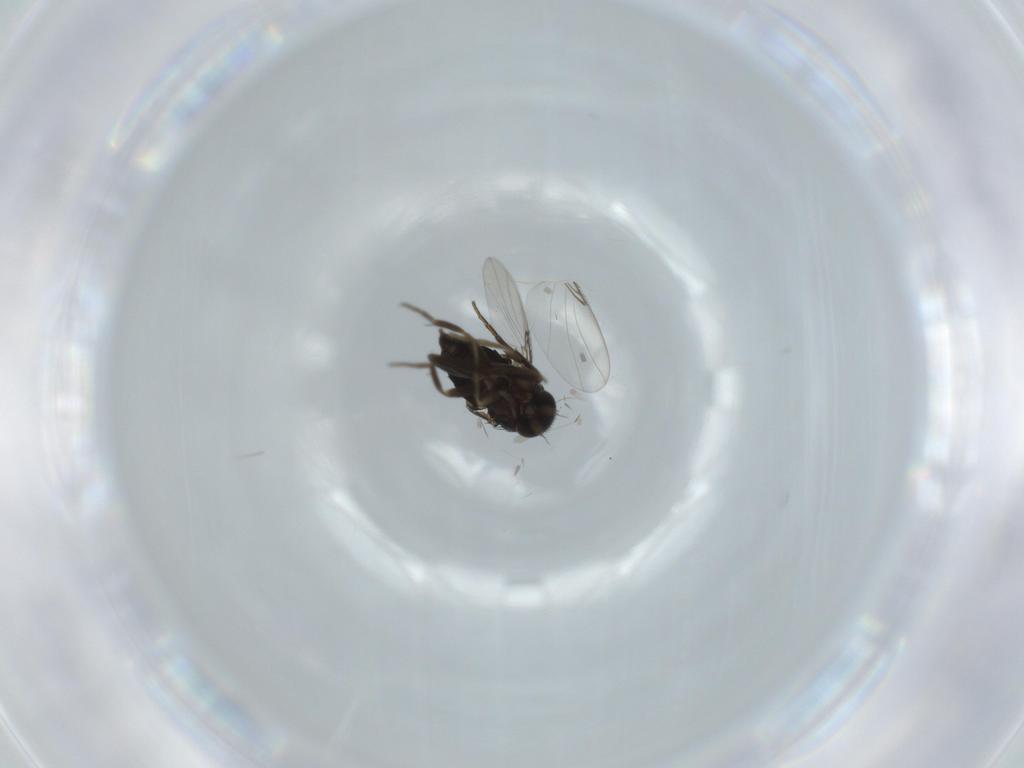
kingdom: Animalia
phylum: Arthropoda
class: Insecta
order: Diptera
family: Phoridae
